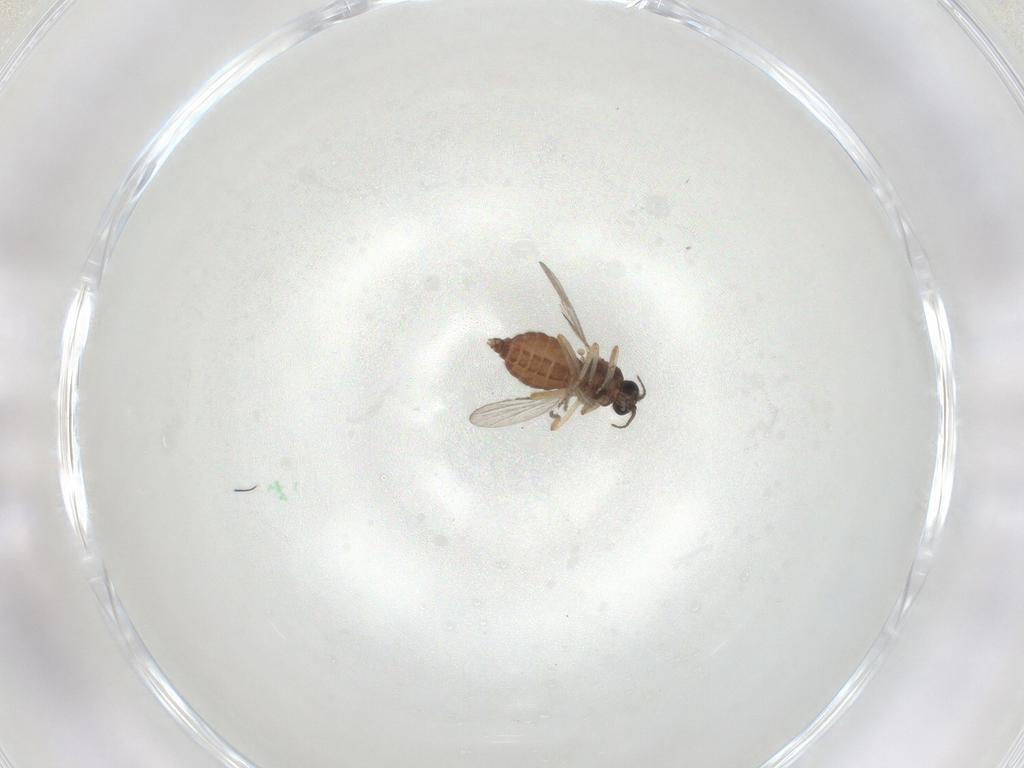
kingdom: Animalia
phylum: Arthropoda
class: Insecta
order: Diptera
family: Ceratopogonidae
